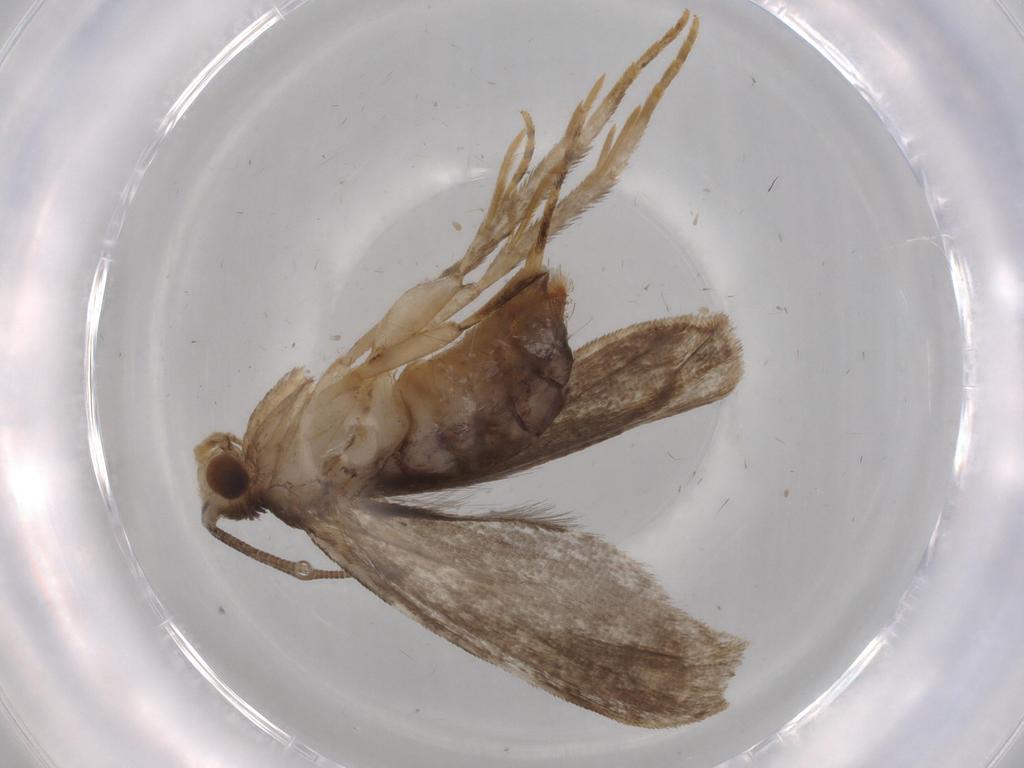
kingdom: Animalia
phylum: Arthropoda
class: Insecta
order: Lepidoptera
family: Dryadaulidae
